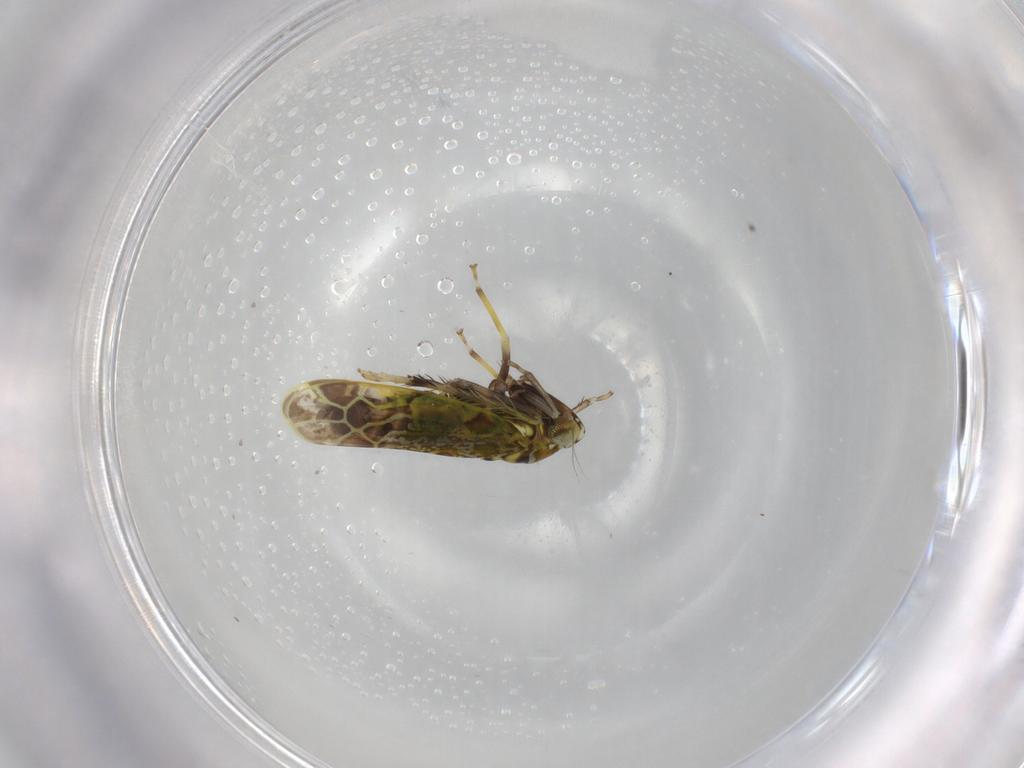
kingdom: Animalia
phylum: Arthropoda
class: Insecta
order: Hemiptera
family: Cicadellidae
